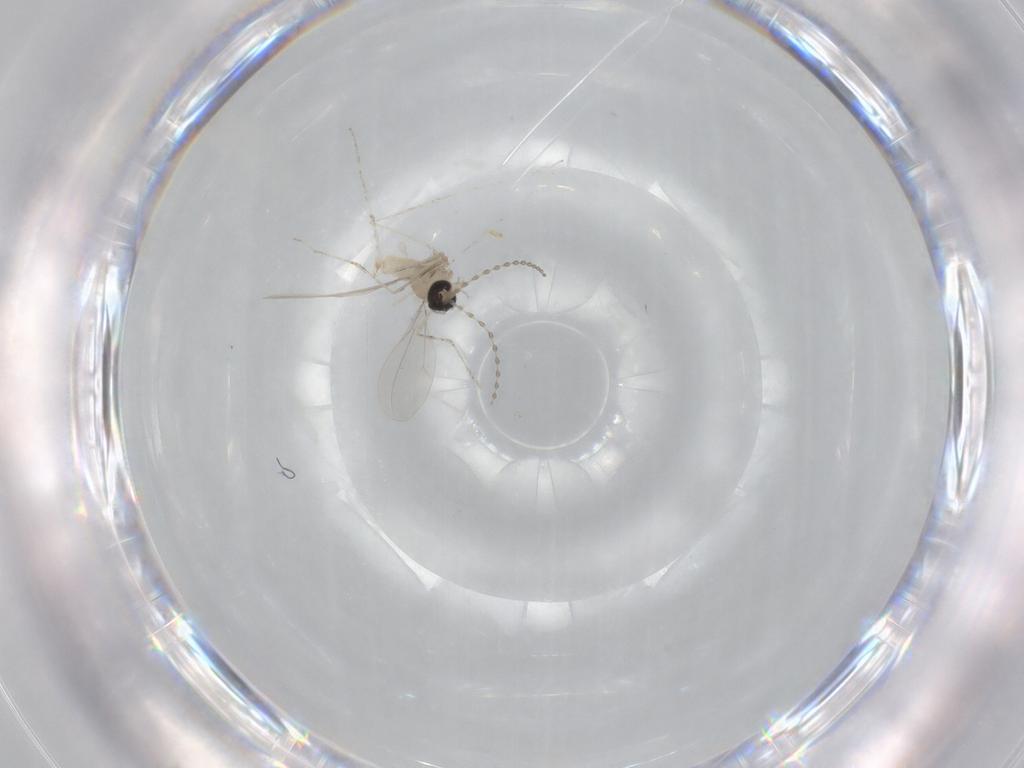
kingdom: Animalia
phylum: Arthropoda
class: Insecta
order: Diptera
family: Cecidomyiidae
